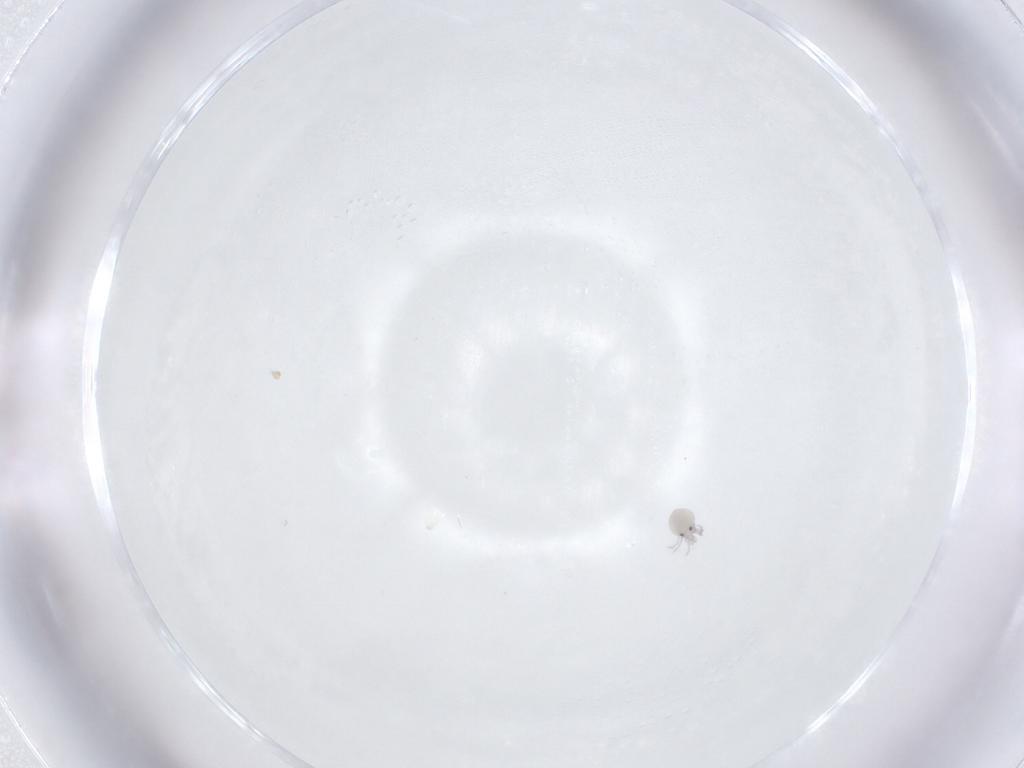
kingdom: Animalia
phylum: Arthropoda
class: Arachnida
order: Trombidiformes
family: Pionidae
